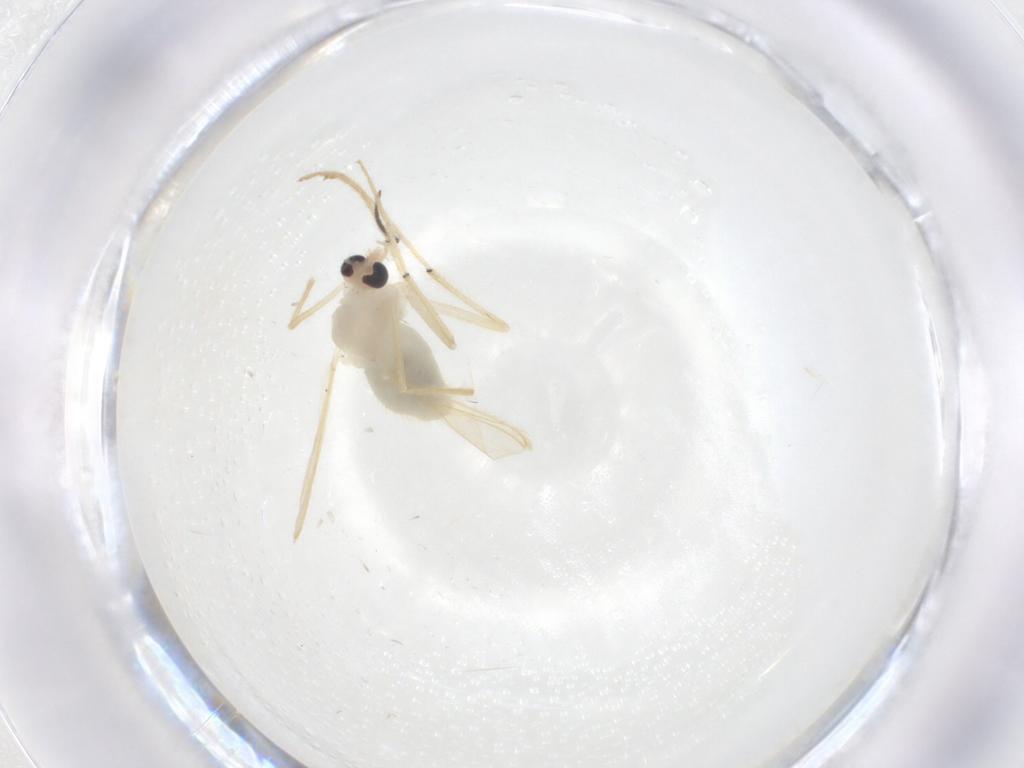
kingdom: Animalia
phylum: Arthropoda
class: Insecta
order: Diptera
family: Chironomidae
